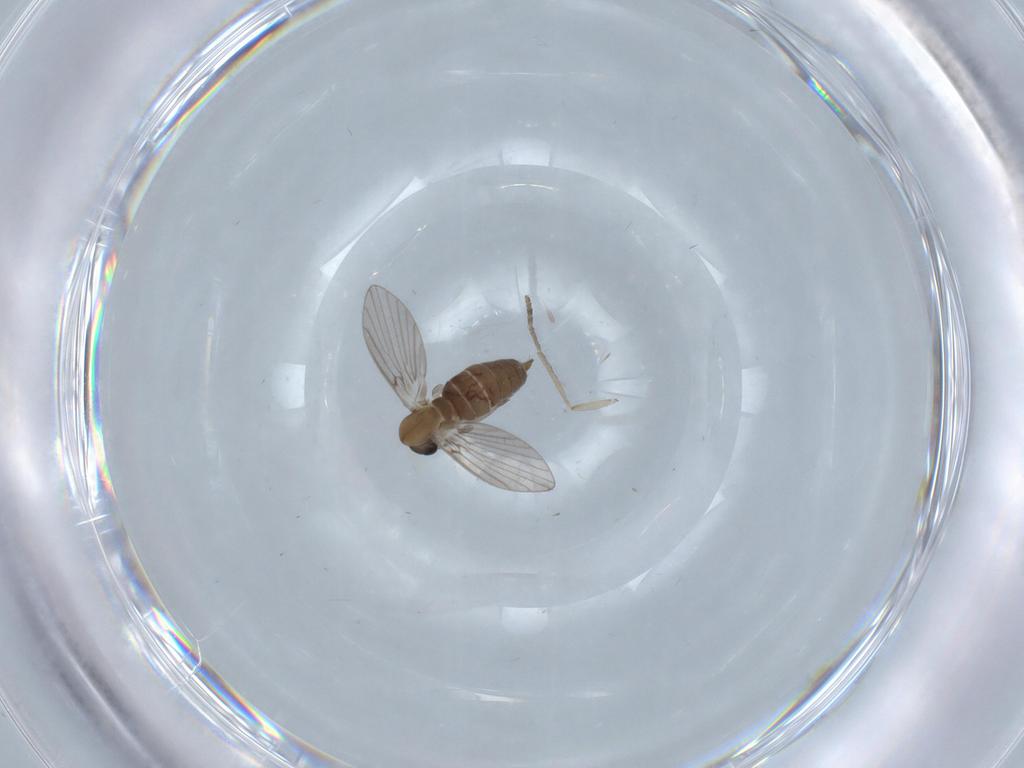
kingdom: Animalia
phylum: Arthropoda
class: Insecta
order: Diptera
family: Psychodidae
